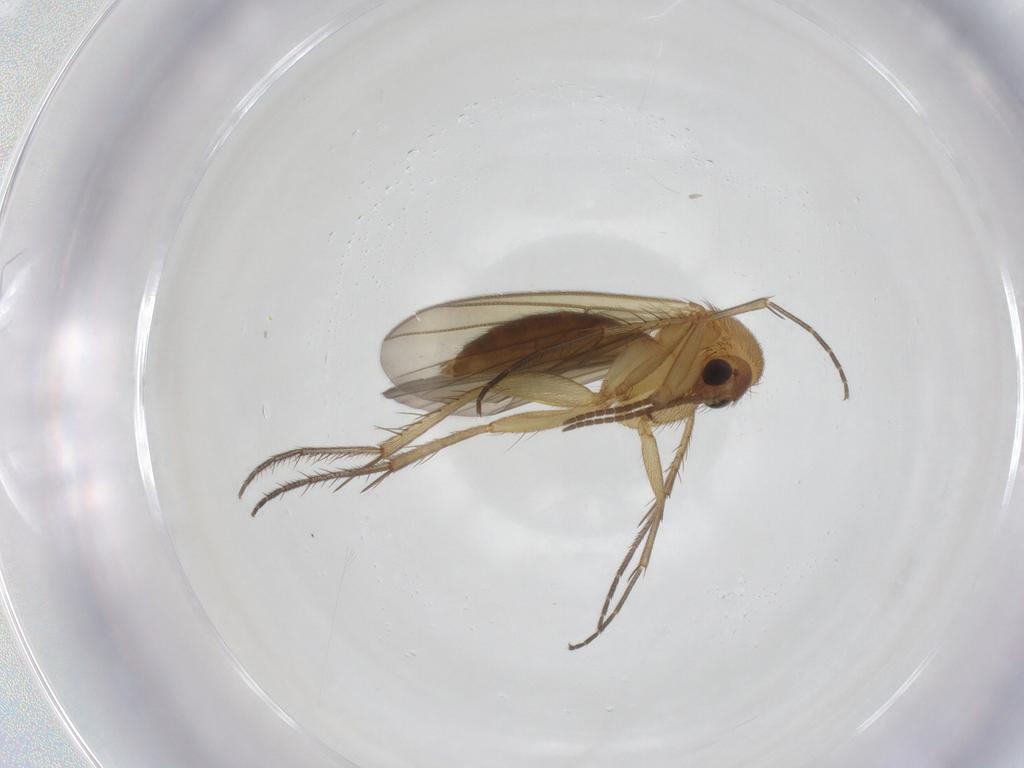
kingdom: Animalia
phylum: Arthropoda
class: Insecta
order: Diptera
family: Mycetophilidae
